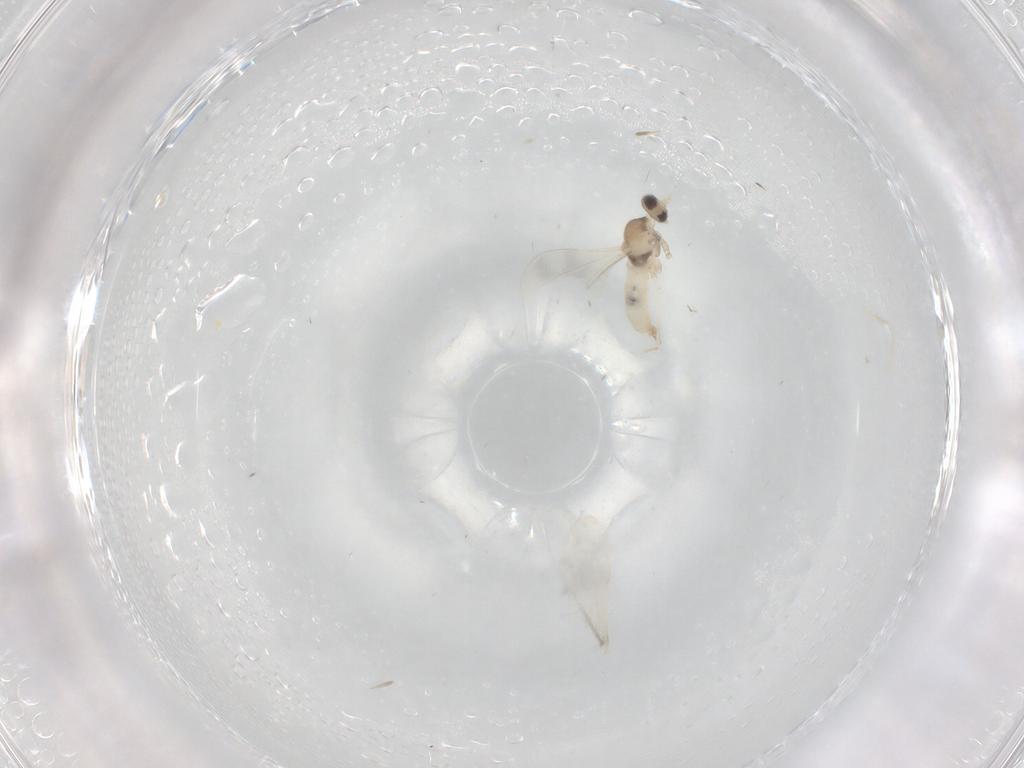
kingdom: Animalia
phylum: Arthropoda
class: Insecta
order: Diptera
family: Cecidomyiidae
